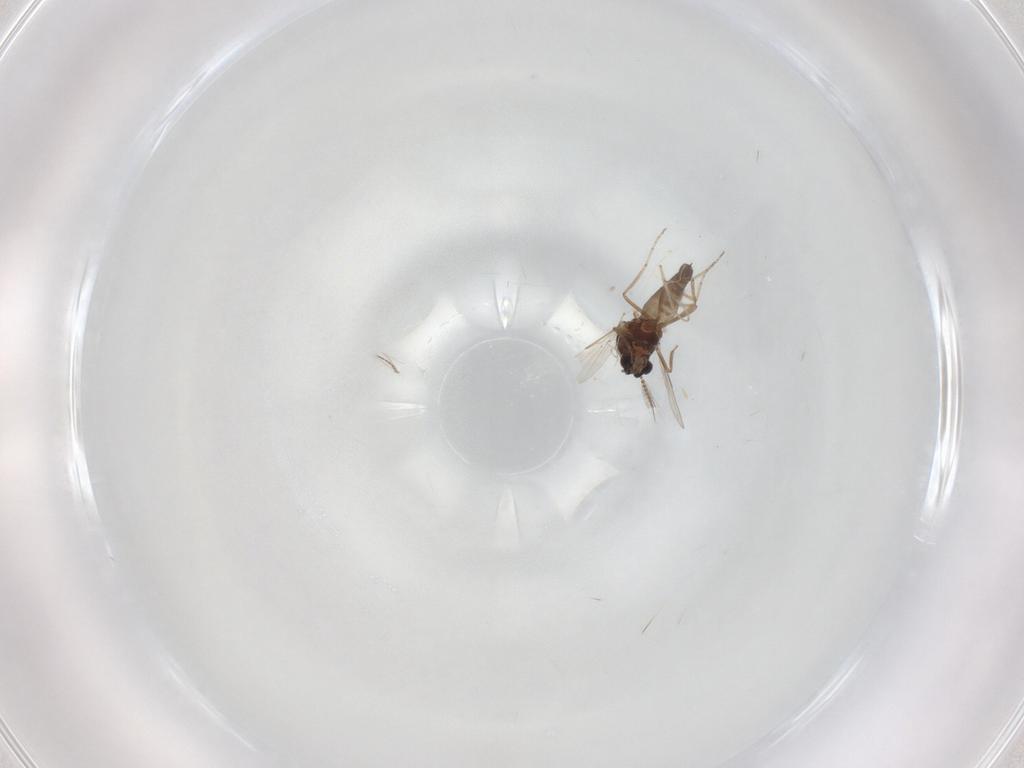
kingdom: Animalia
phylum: Arthropoda
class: Insecta
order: Diptera
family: Ceratopogonidae
